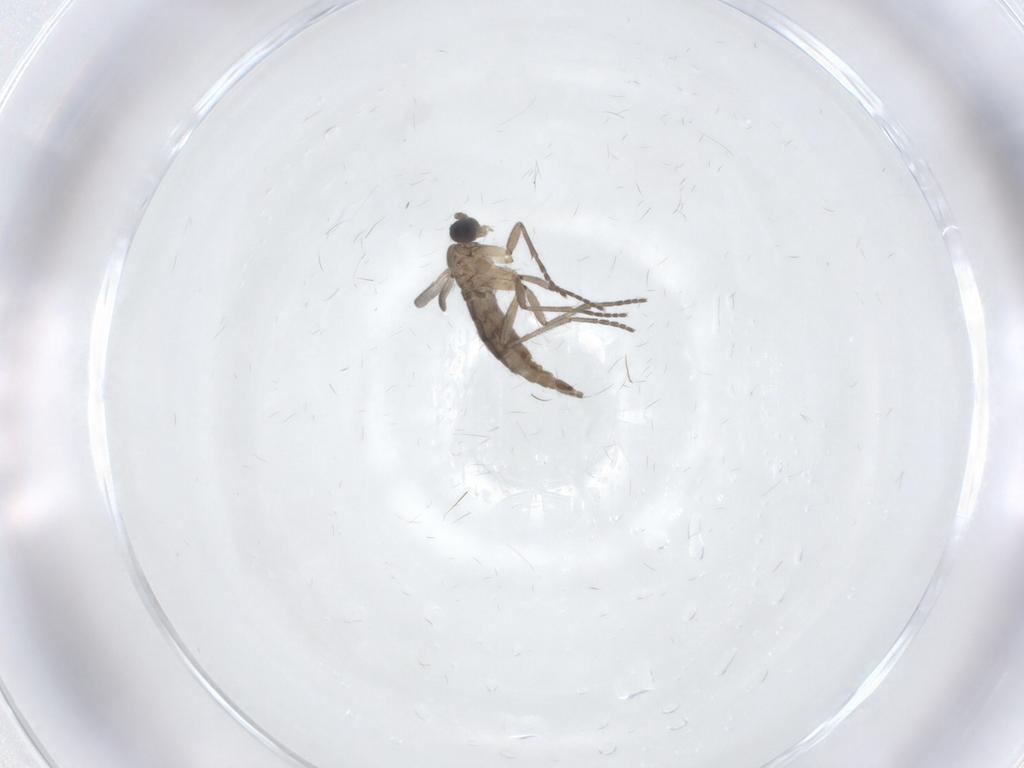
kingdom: Animalia
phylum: Arthropoda
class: Insecta
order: Diptera
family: Sciaridae
